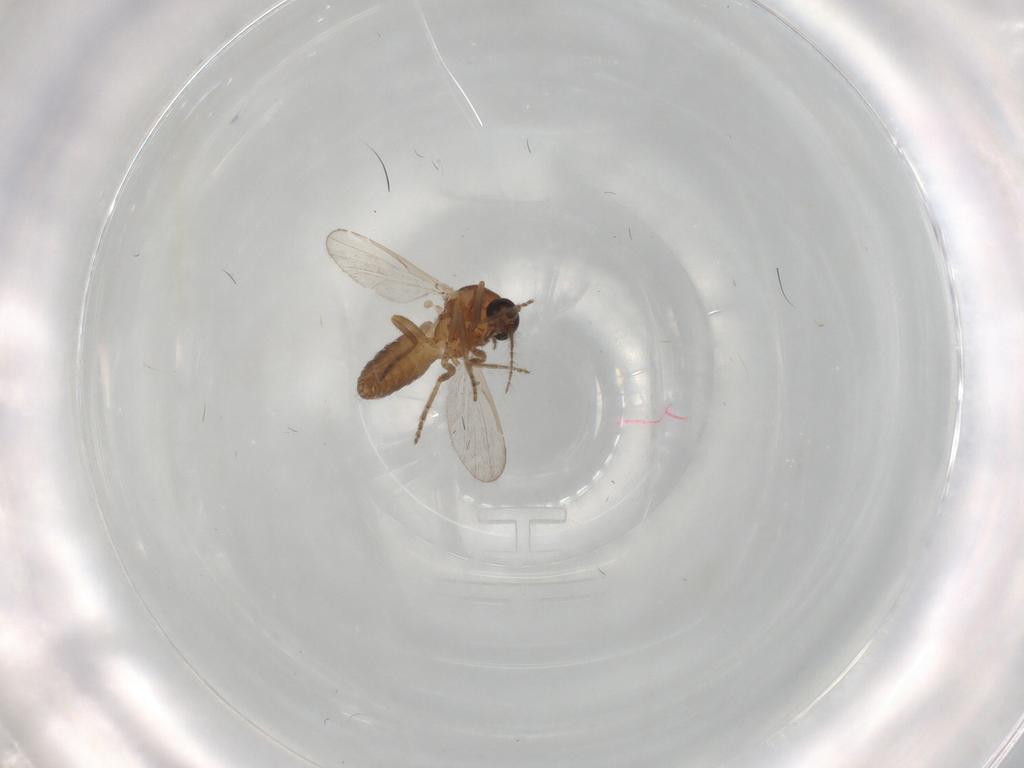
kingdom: Animalia
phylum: Arthropoda
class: Insecta
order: Diptera
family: Ceratopogonidae
